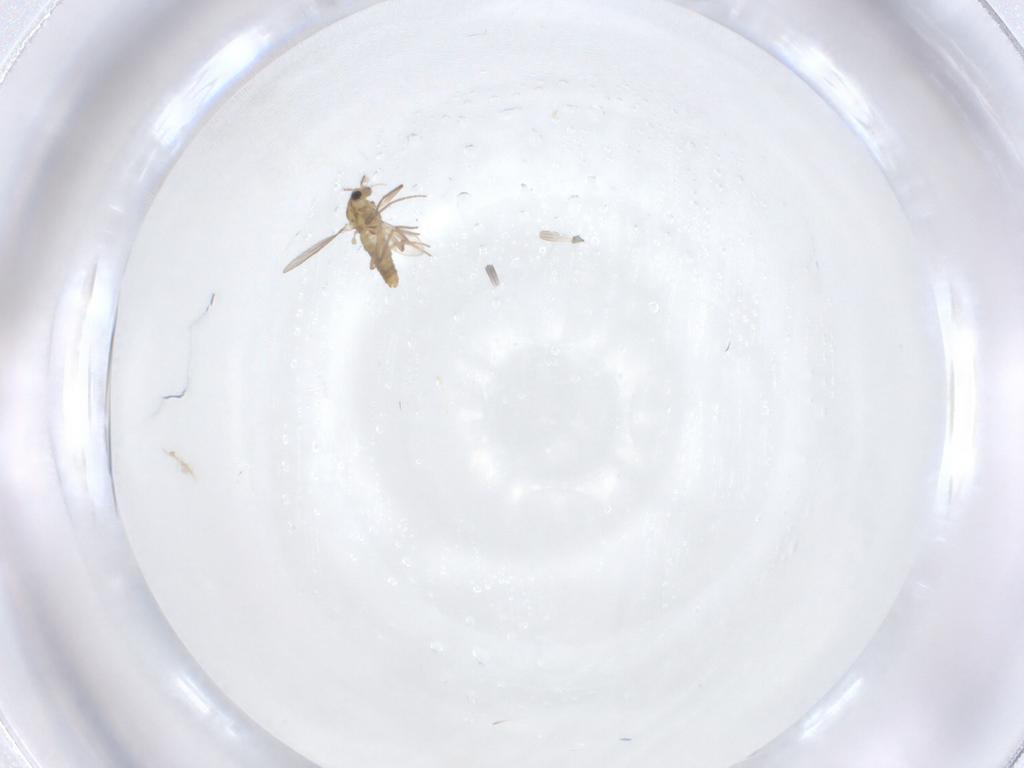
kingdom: Animalia
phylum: Arthropoda
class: Insecta
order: Diptera
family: Chironomidae
